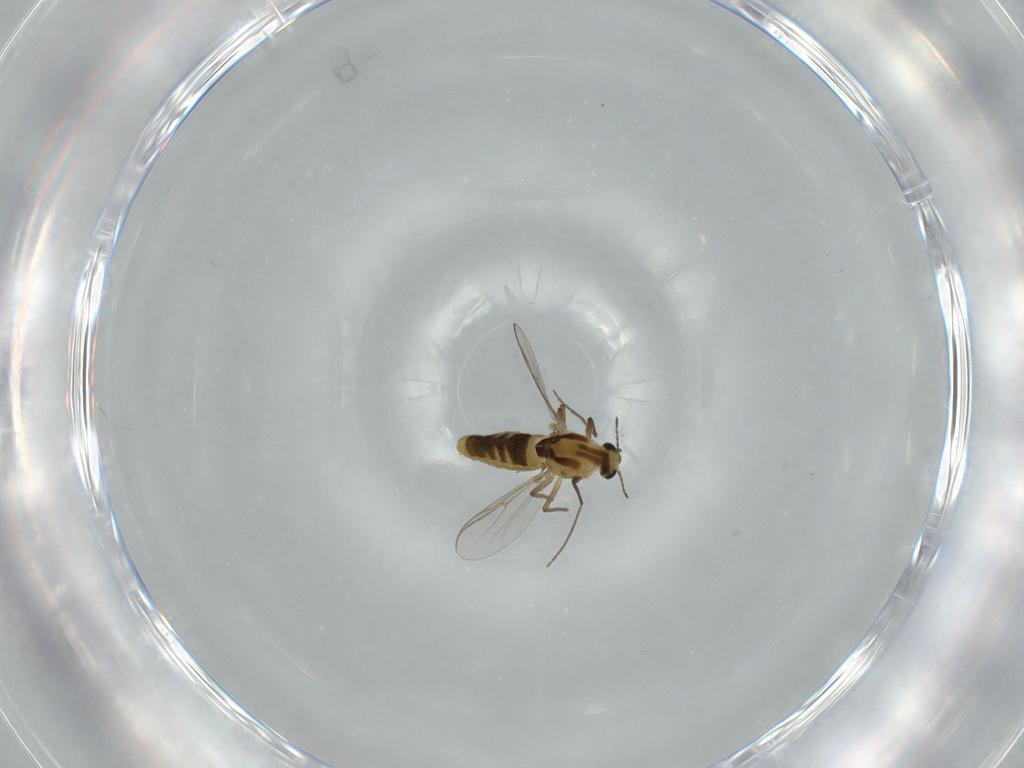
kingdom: Animalia
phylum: Arthropoda
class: Insecta
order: Diptera
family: Chironomidae
